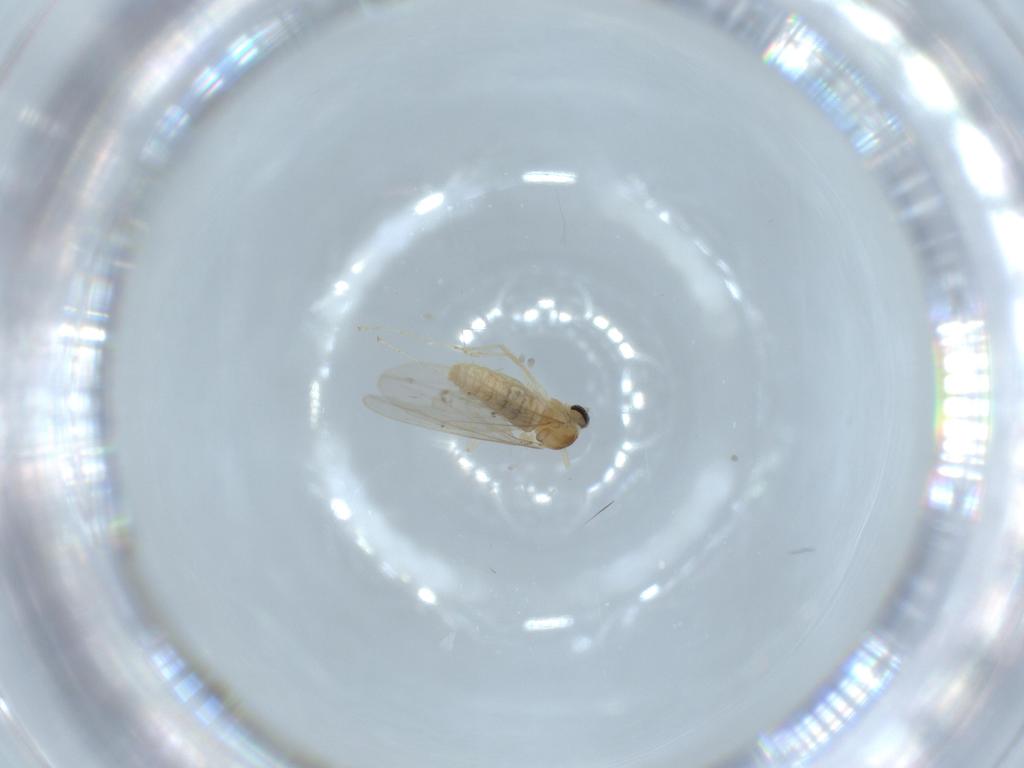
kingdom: Animalia
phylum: Arthropoda
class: Insecta
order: Diptera
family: Cecidomyiidae
